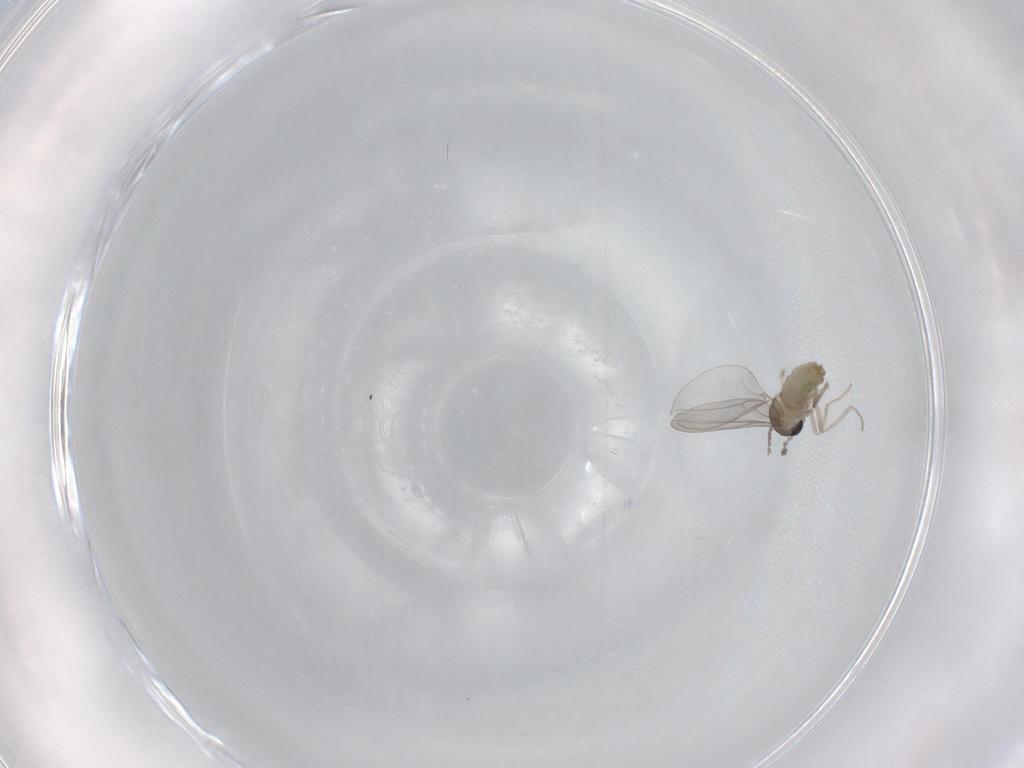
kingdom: Animalia
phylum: Arthropoda
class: Insecta
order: Diptera
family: Cecidomyiidae
